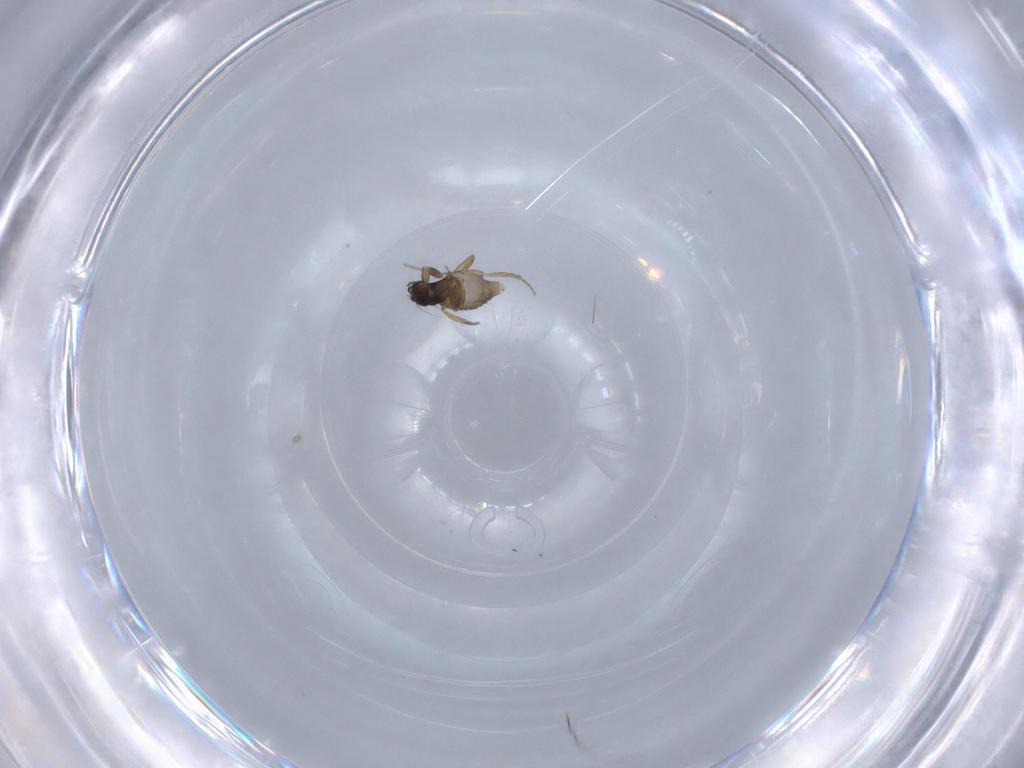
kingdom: Animalia
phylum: Arthropoda
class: Insecta
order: Diptera
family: Phoridae
